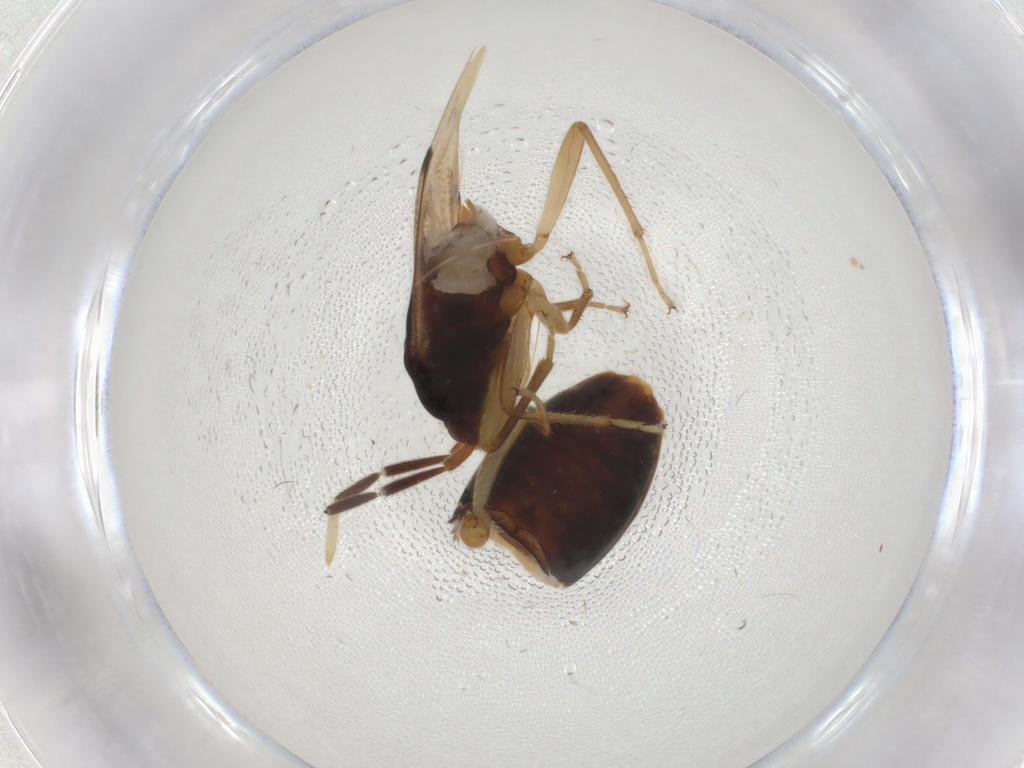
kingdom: Animalia
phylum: Arthropoda
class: Insecta
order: Hemiptera
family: Rhyparochromidae
